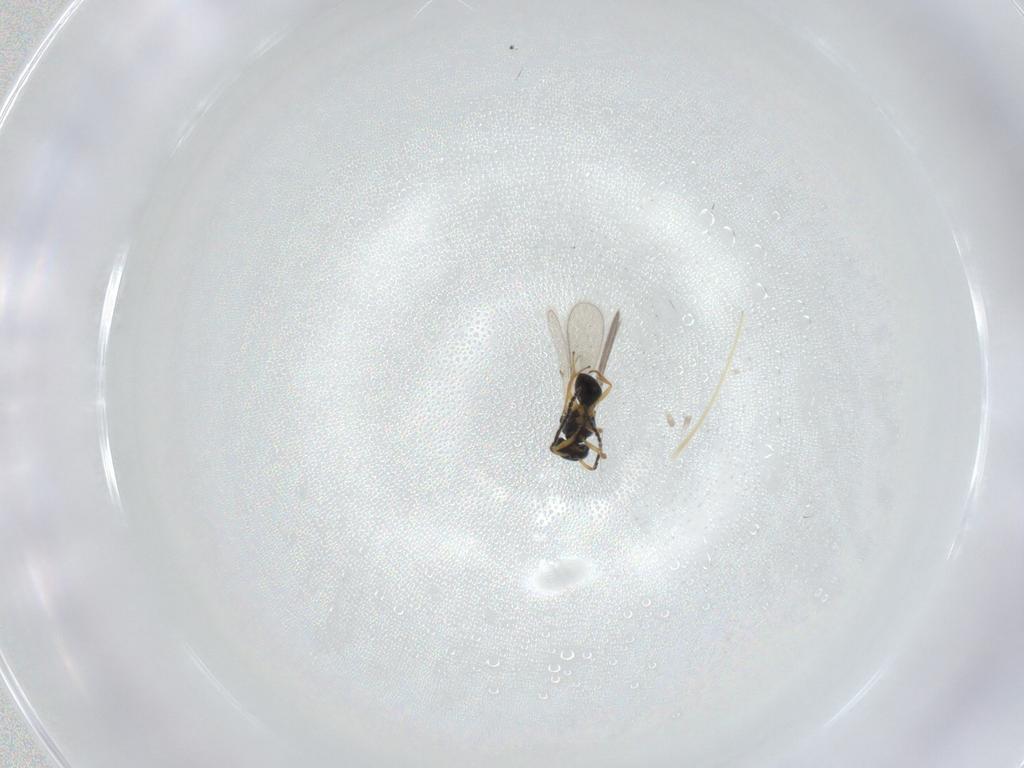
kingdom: Animalia
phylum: Arthropoda
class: Insecta
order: Hymenoptera
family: Scelionidae
